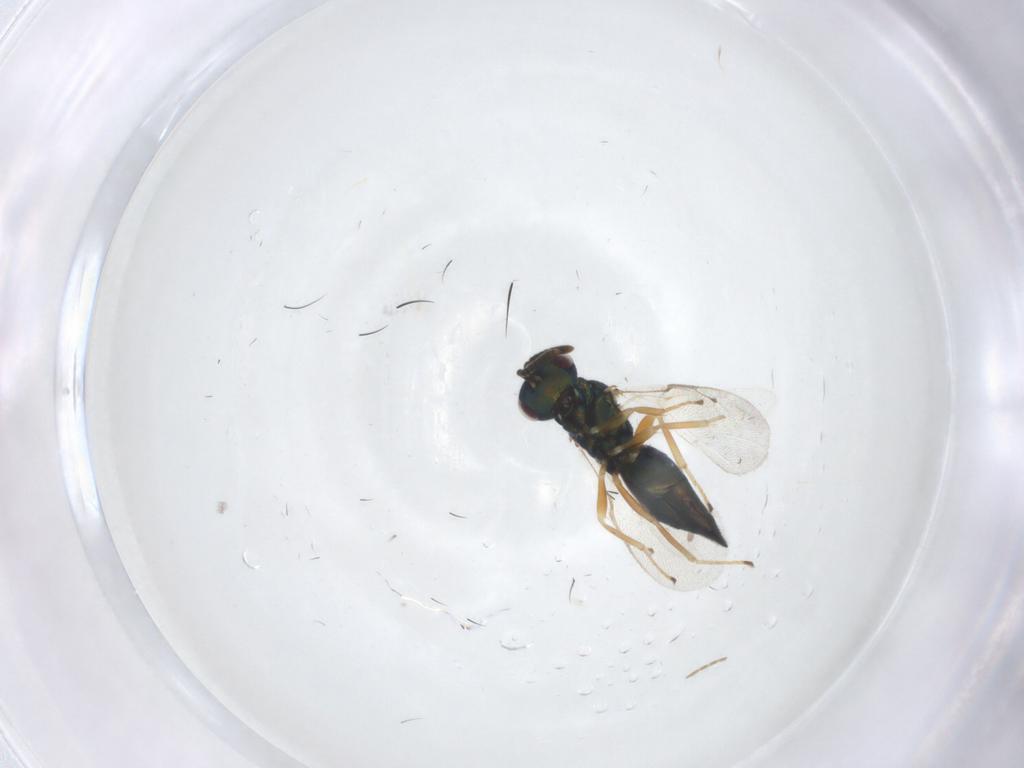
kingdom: Animalia
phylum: Arthropoda
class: Insecta
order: Hymenoptera
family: Pteromalidae
